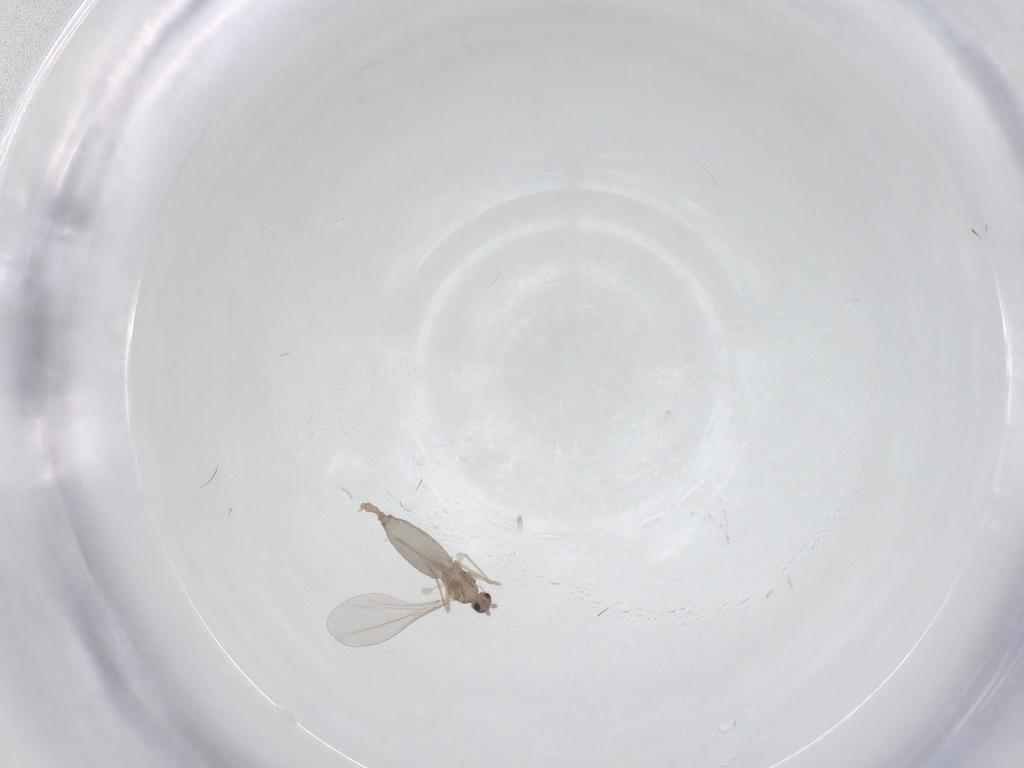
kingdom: Animalia
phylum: Arthropoda
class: Insecta
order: Diptera
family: Cecidomyiidae
